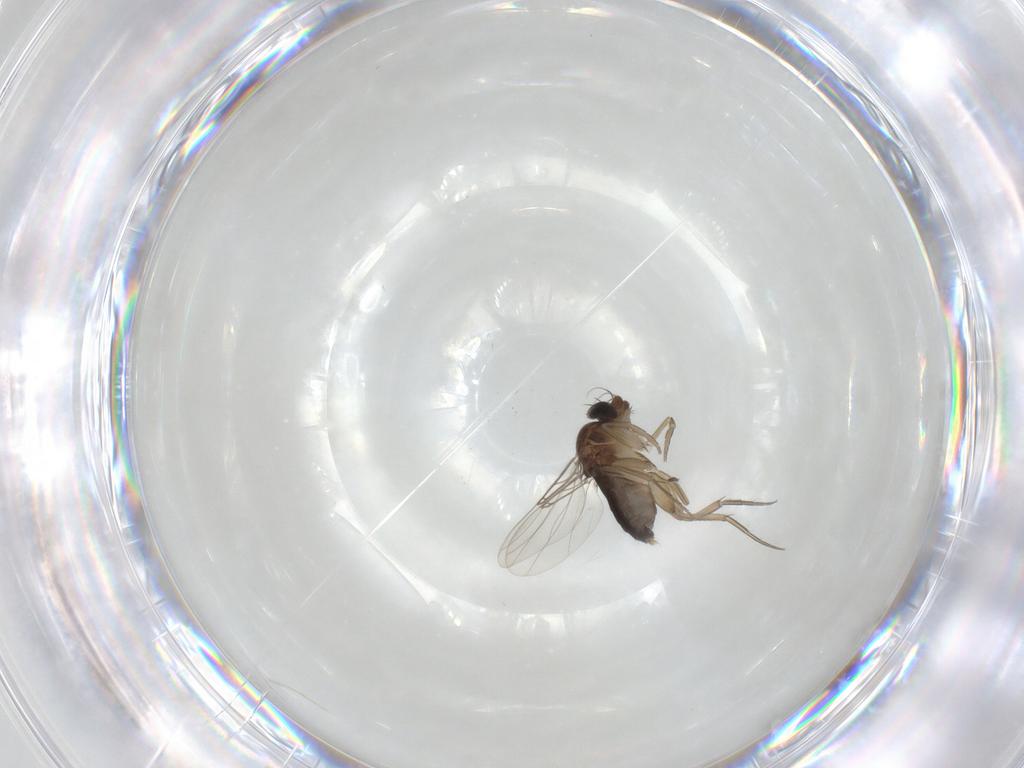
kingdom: Animalia
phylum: Arthropoda
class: Insecta
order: Diptera
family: Phoridae
